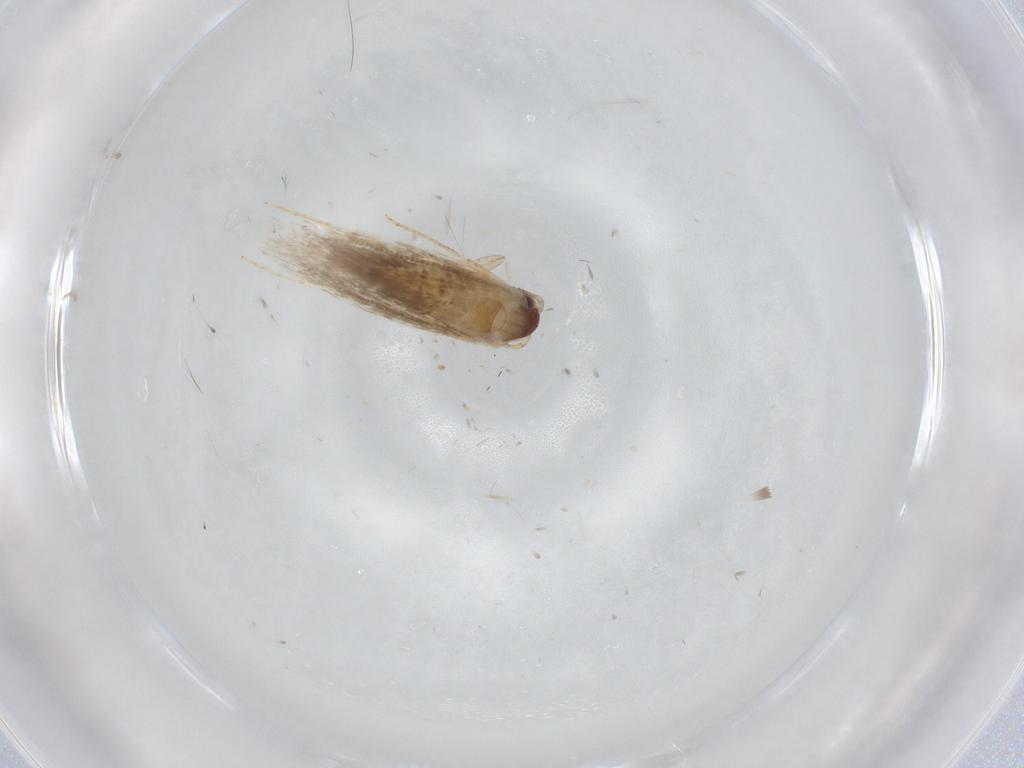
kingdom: Animalia
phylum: Arthropoda
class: Insecta
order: Lepidoptera
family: Tineidae
